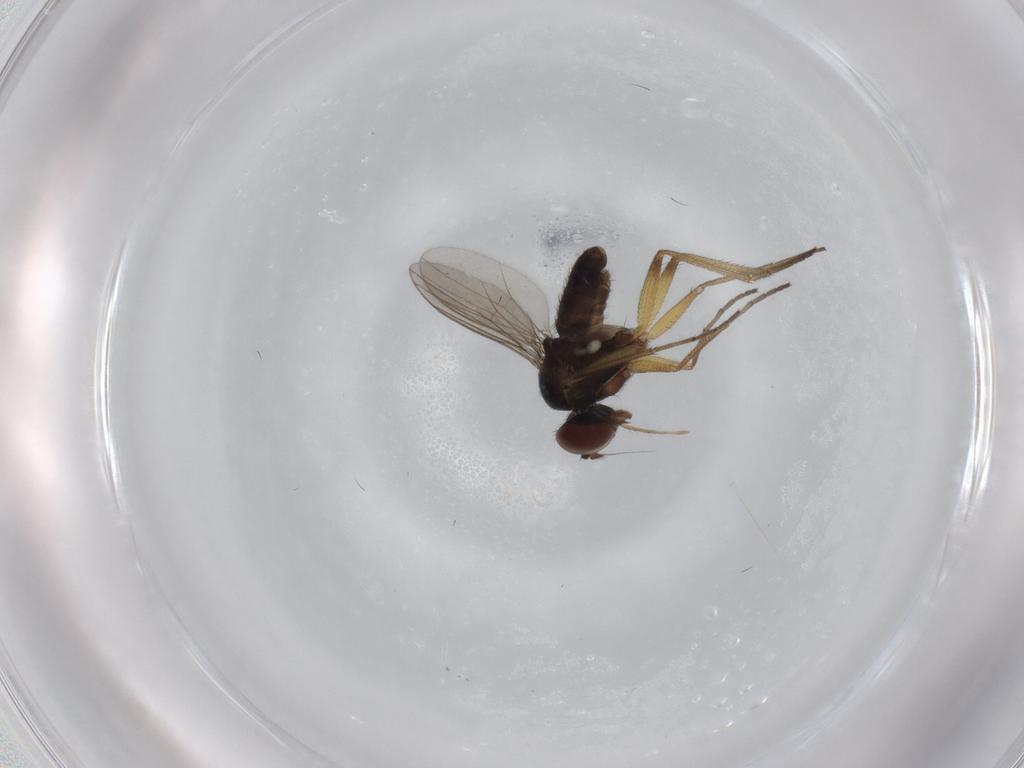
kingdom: Animalia
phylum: Arthropoda
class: Insecta
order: Diptera
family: Dolichopodidae
